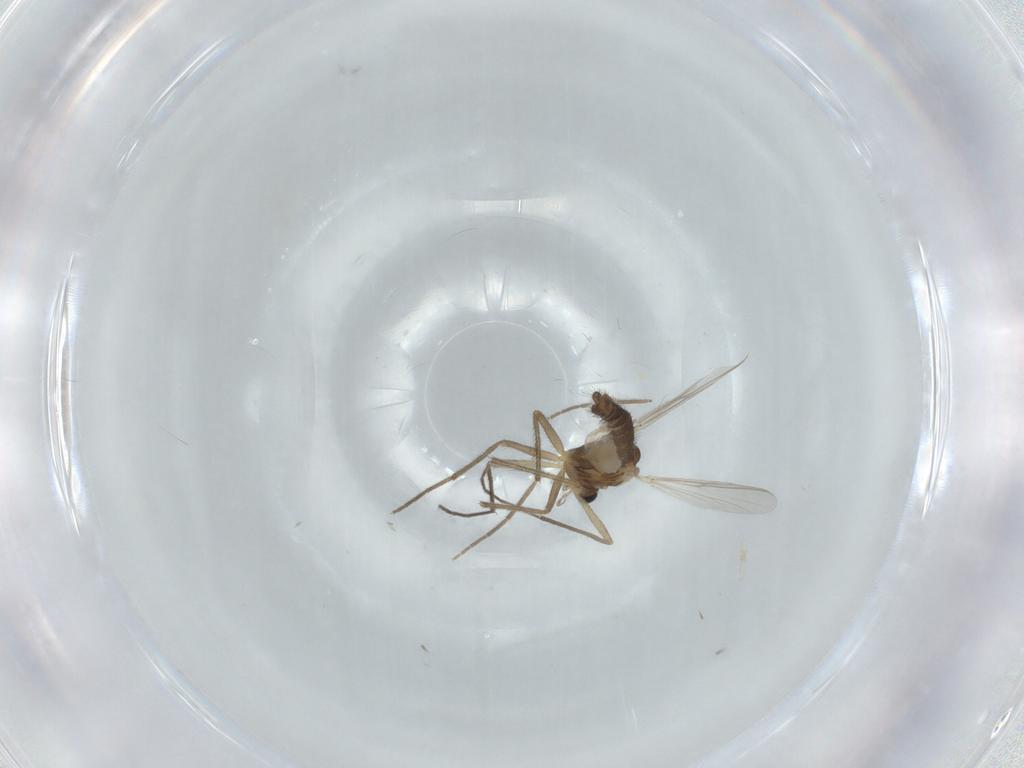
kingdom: Animalia
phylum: Arthropoda
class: Insecta
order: Diptera
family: Chironomidae
